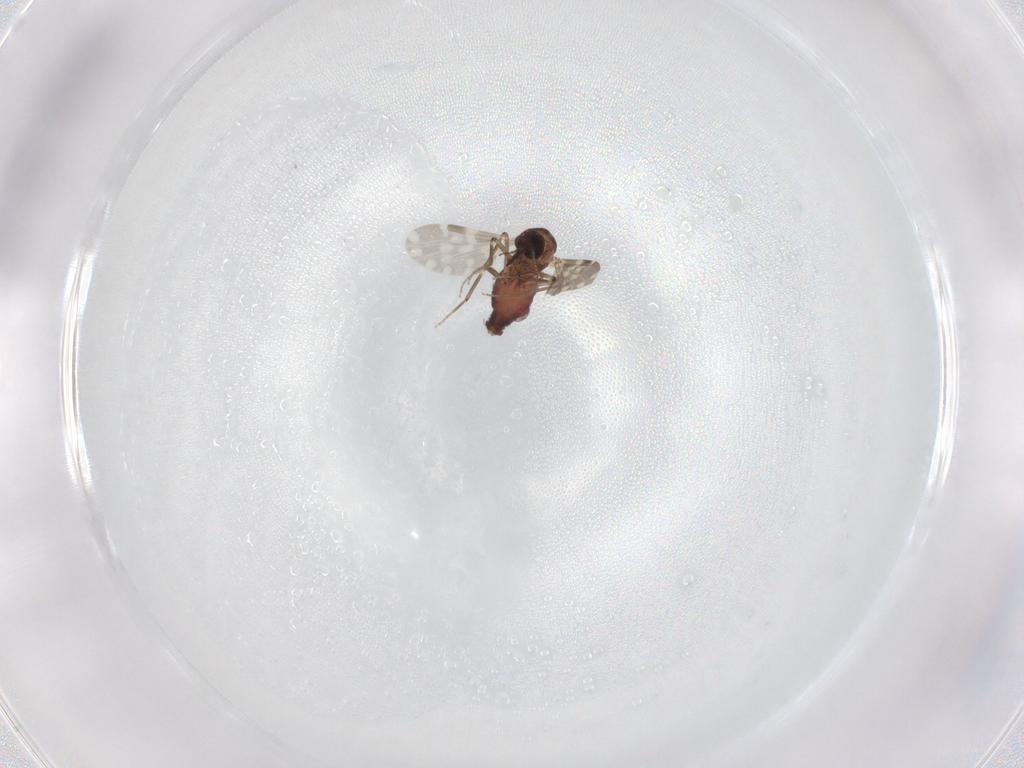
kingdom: Animalia
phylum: Arthropoda
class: Insecta
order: Diptera
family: Ceratopogonidae
